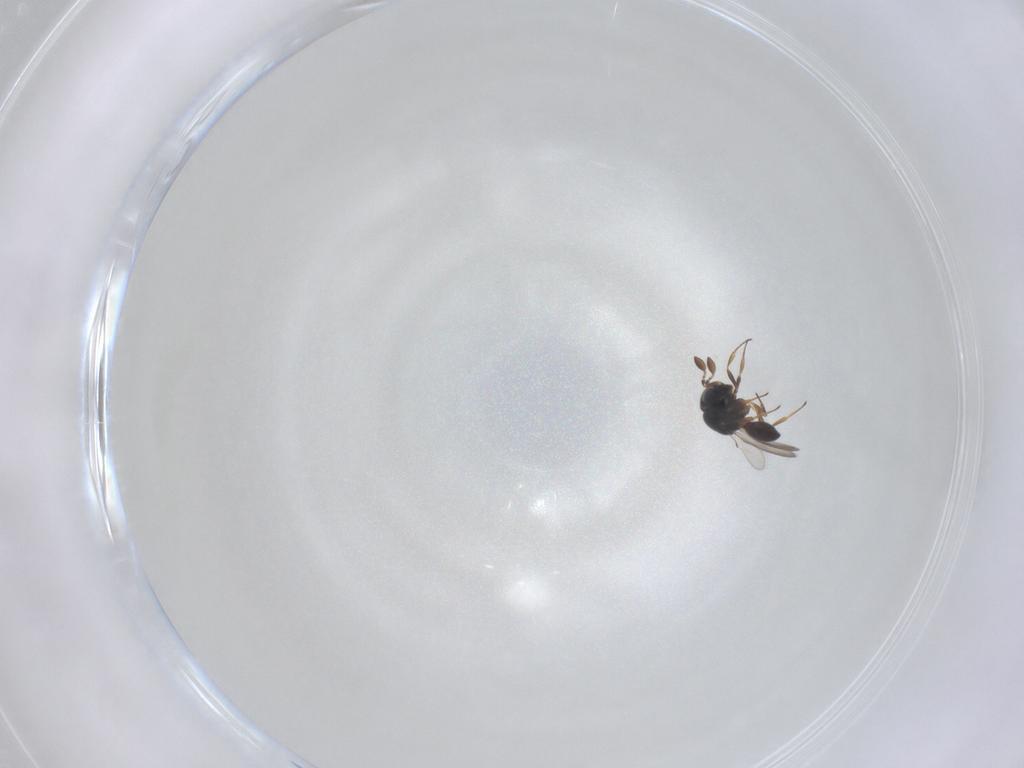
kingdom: Animalia
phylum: Arthropoda
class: Insecta
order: Hymenoptera
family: Scelionidae
